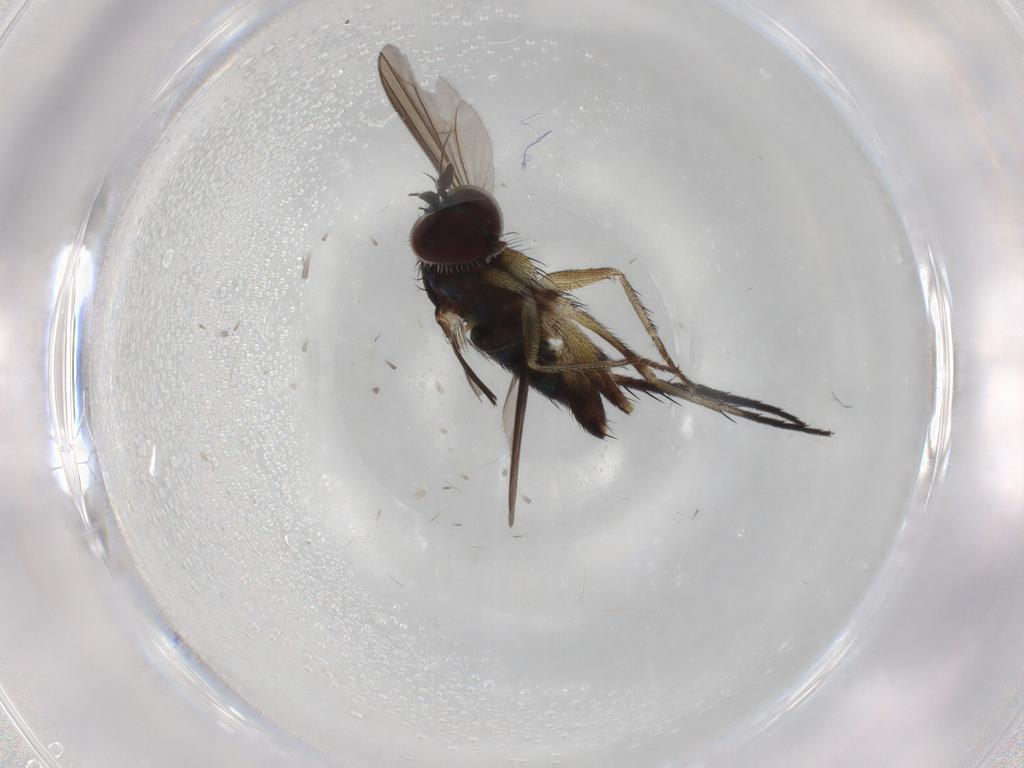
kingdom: Animalia
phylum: Arthropoda
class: Insecta
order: Diptera
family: Dolichopodidae
